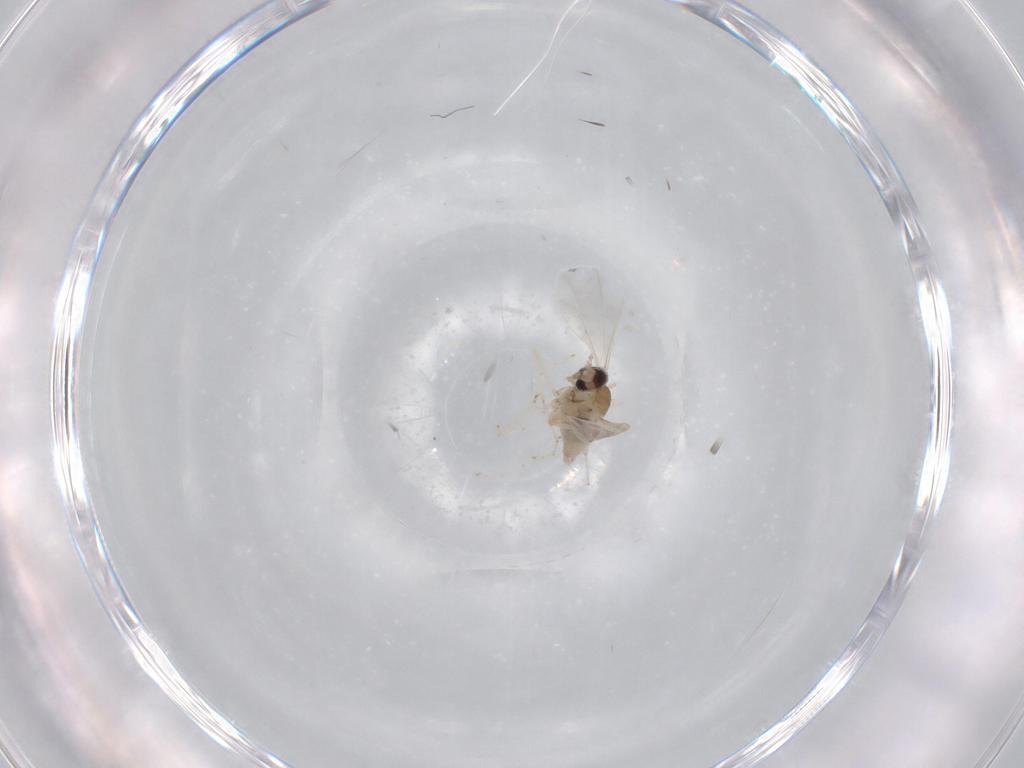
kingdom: Animalia
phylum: Arthropoda
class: Insecta
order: Diptera
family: Cecidomyiidae
